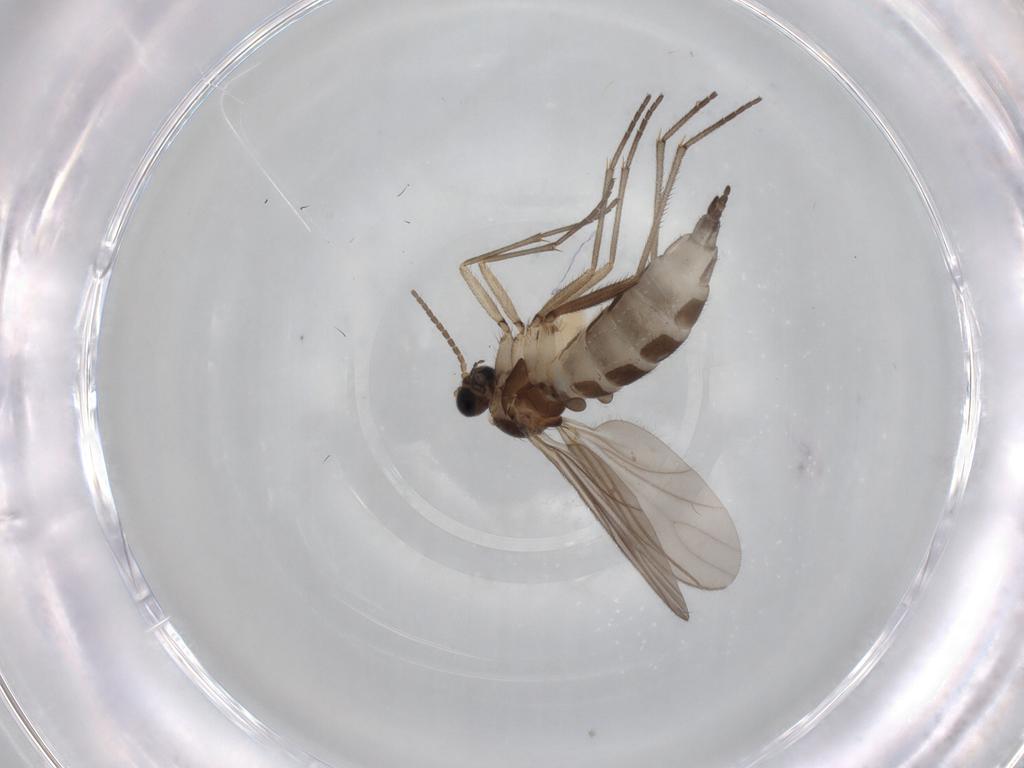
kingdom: Animalia
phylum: Arthropoda
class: Insecta
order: Diptera
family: Sciaridae
